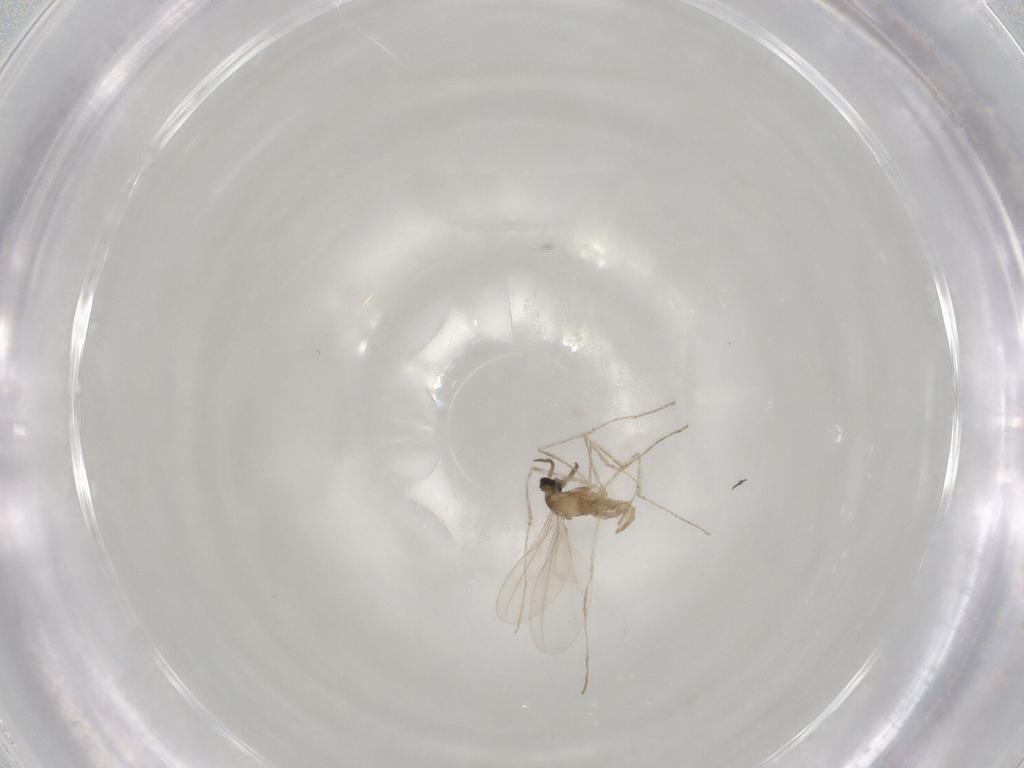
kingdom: Animalia
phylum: Arthropoda
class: Insecta
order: Diptera
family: Cecidomyiidae
